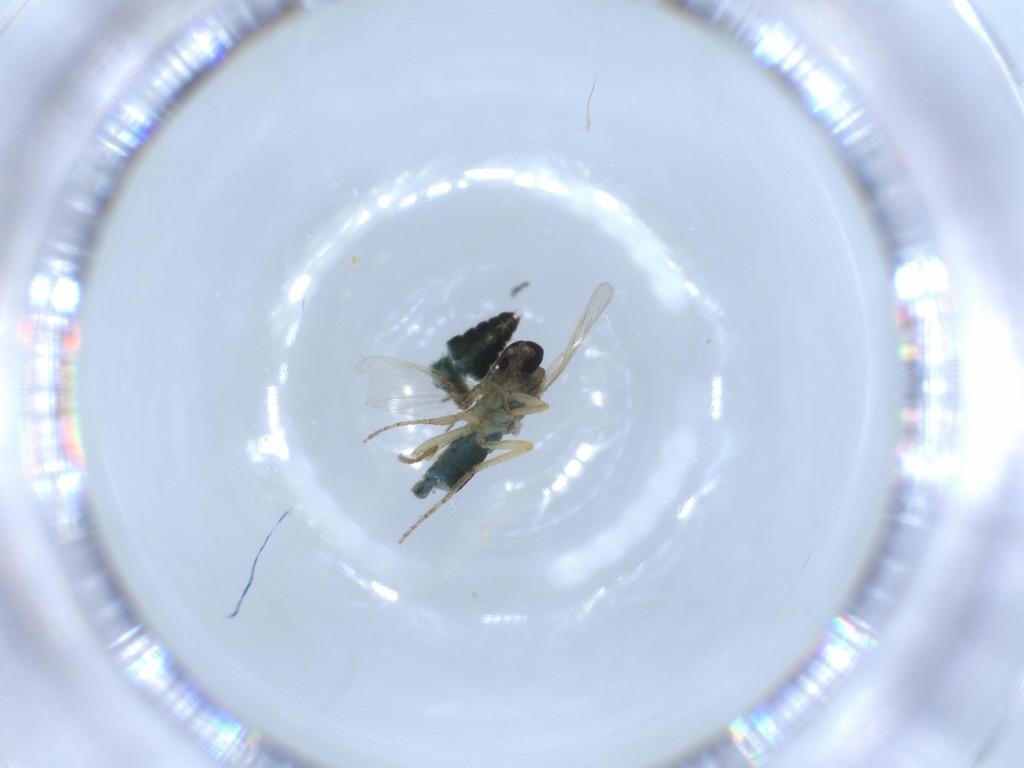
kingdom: Animalia
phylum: Arthropoda
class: Insecta
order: Diptera
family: Ceratopogonidae
